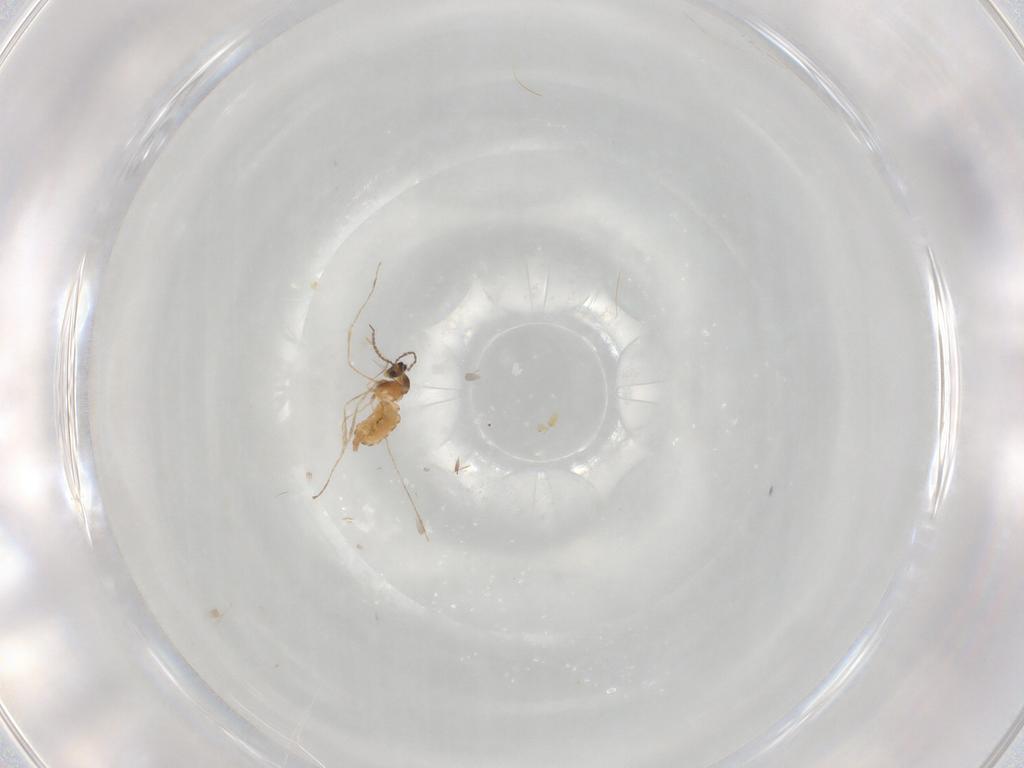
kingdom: Animalia
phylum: Arthropoda
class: Insecta
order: Diptera
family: Cecidomyiidae
